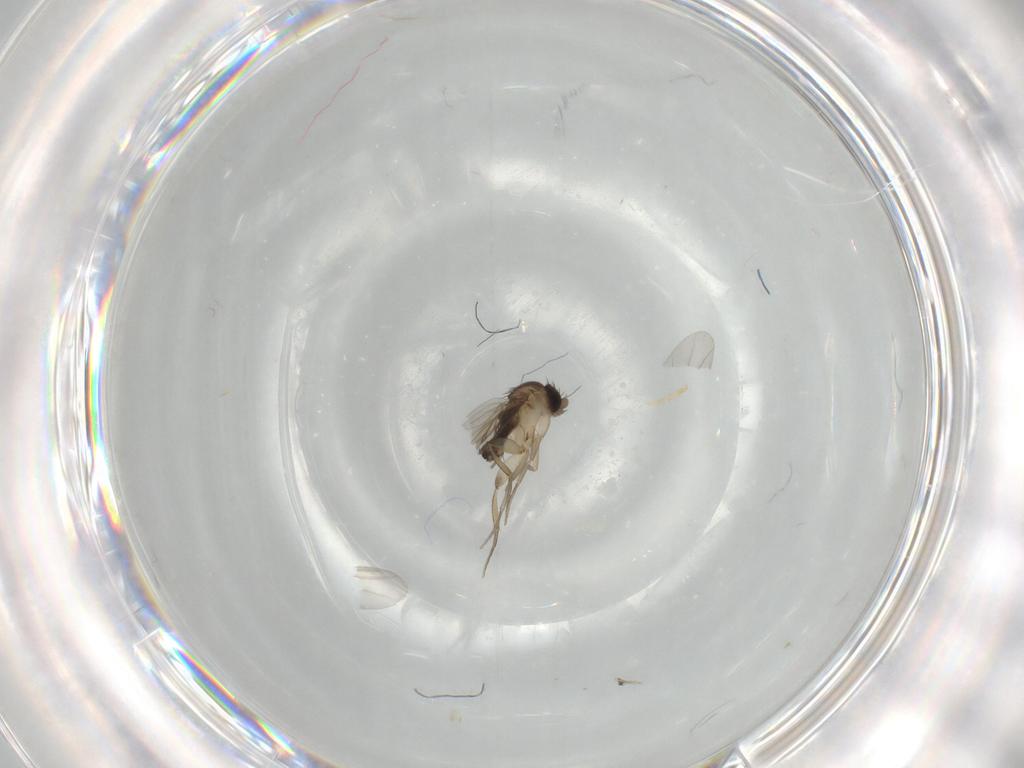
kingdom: Animalia
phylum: Arthropoda
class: Insecta
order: Diptera
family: Phoridae
